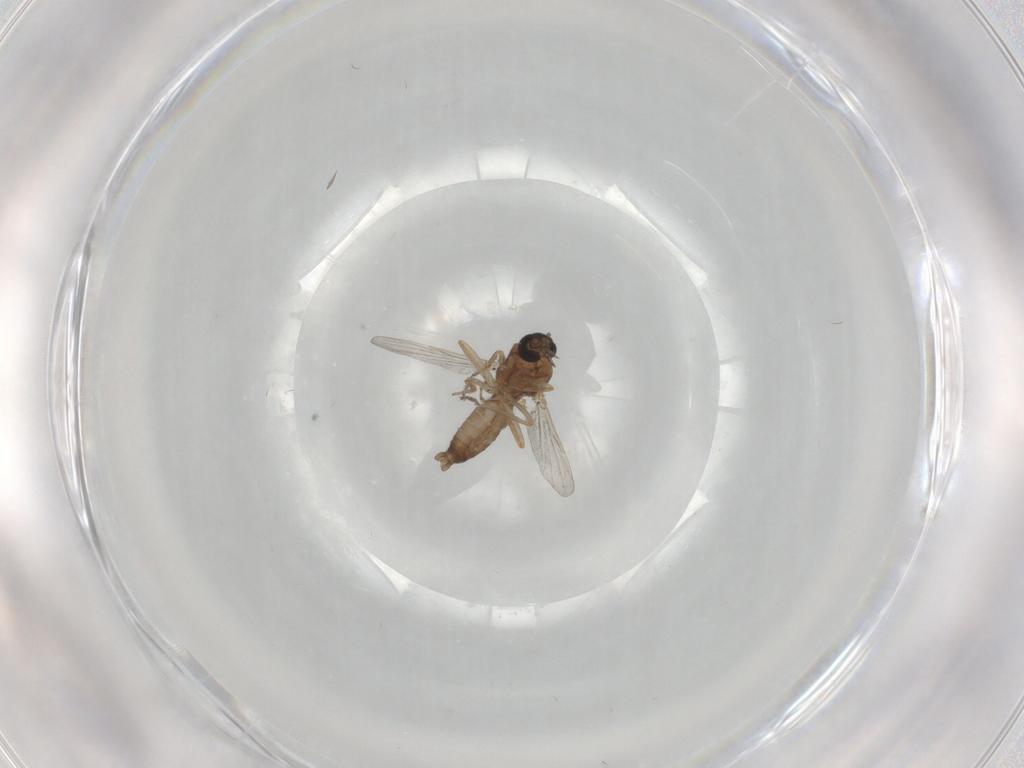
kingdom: Animalia
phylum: Arthropoda
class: Insecta
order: Diptera
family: Ceratopogonidae
